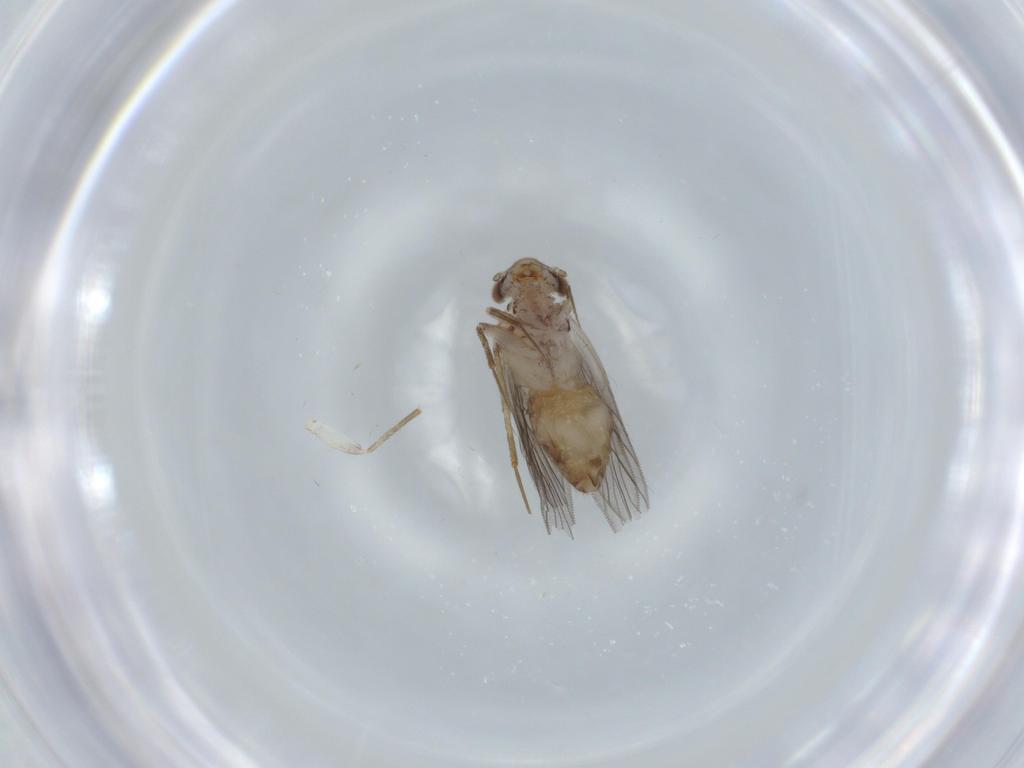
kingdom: Animalia
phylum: Arthropoda
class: Insecta
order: Psocodea
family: Lepidopsocidae
